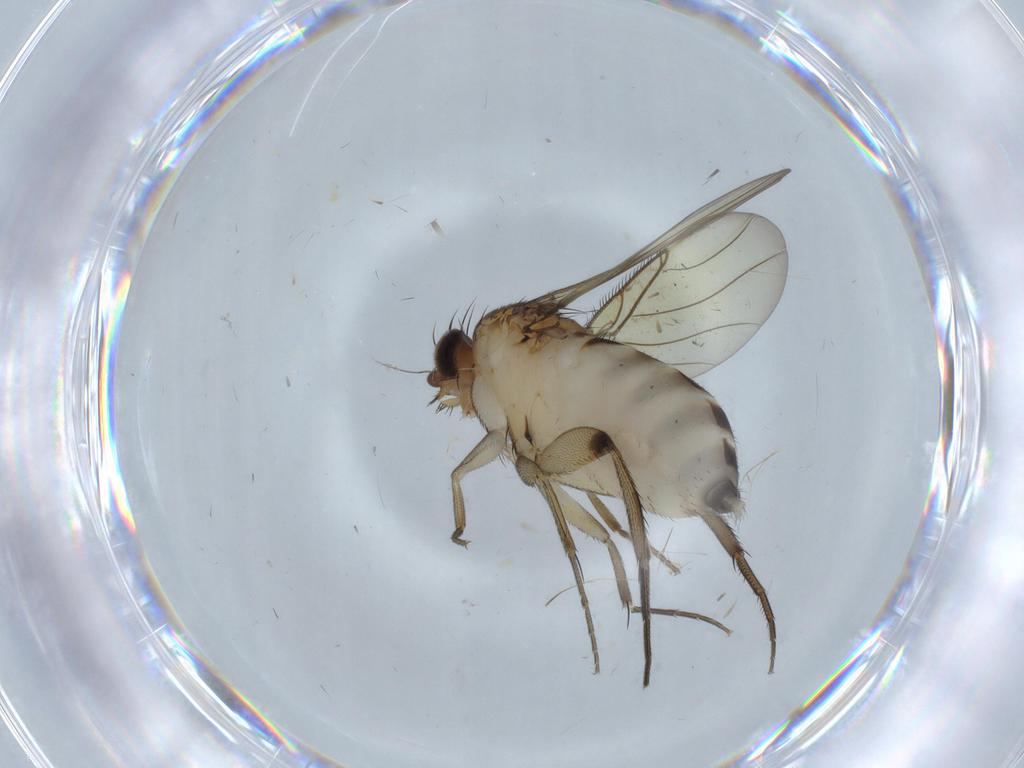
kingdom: Animalia
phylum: Arthropoda
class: Insecta
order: Diptera
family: Phoridae
